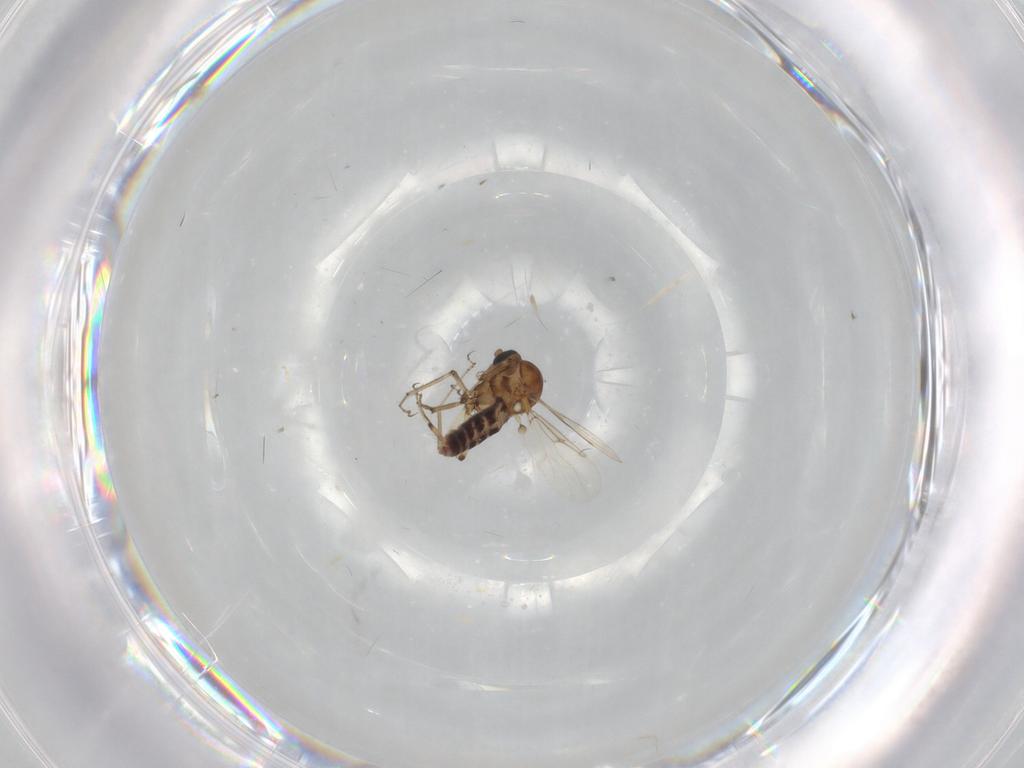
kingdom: Animalia
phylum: Arthropoda
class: Insecta
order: Diptera
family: Ceratopogonidae
